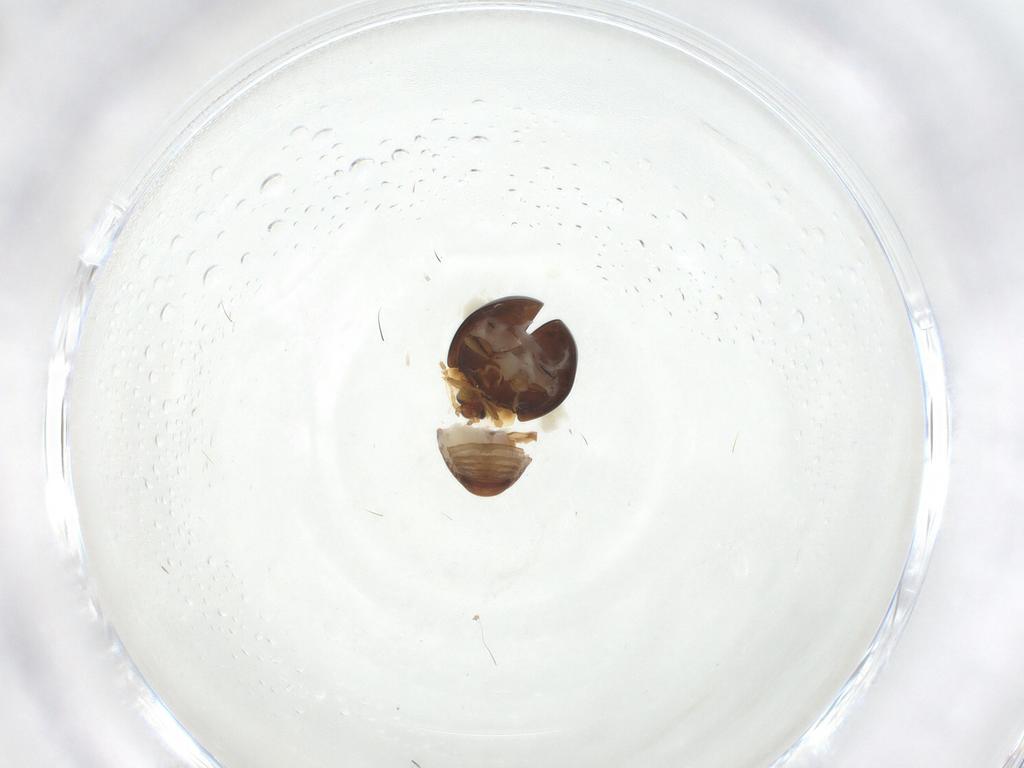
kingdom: Animalia
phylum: Arthropoda
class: Insecta
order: Coleoptera
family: Corylophidae
